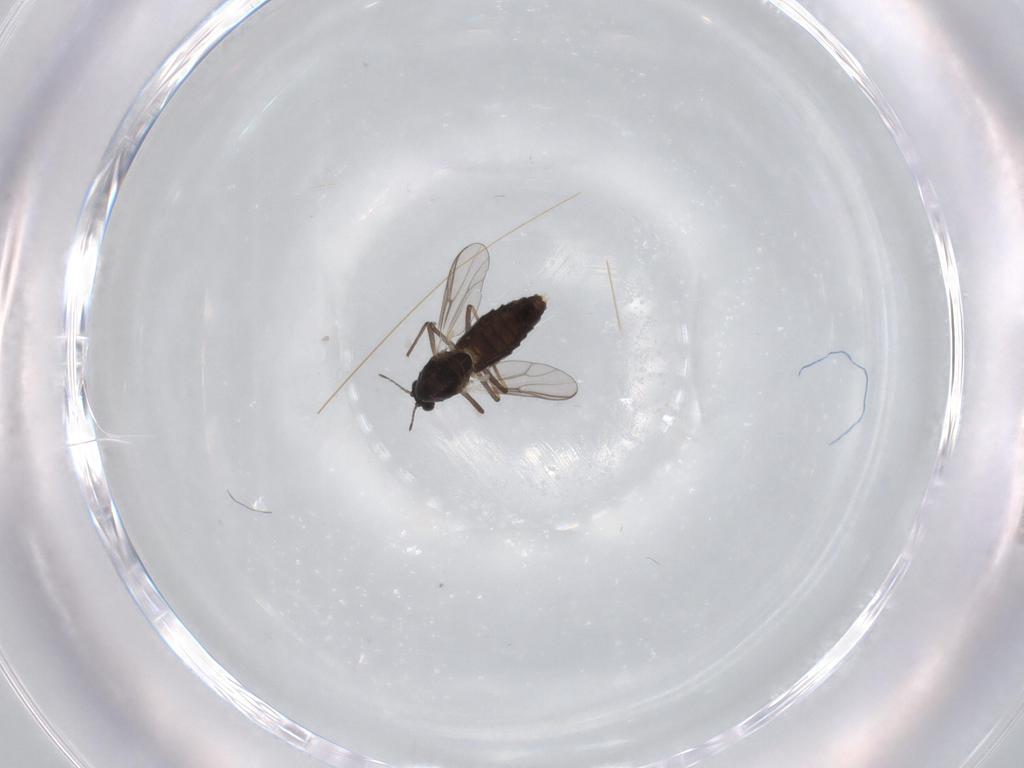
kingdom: Animalia
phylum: Arthropoda
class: Insecta
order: Diptera
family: Chironomidae
